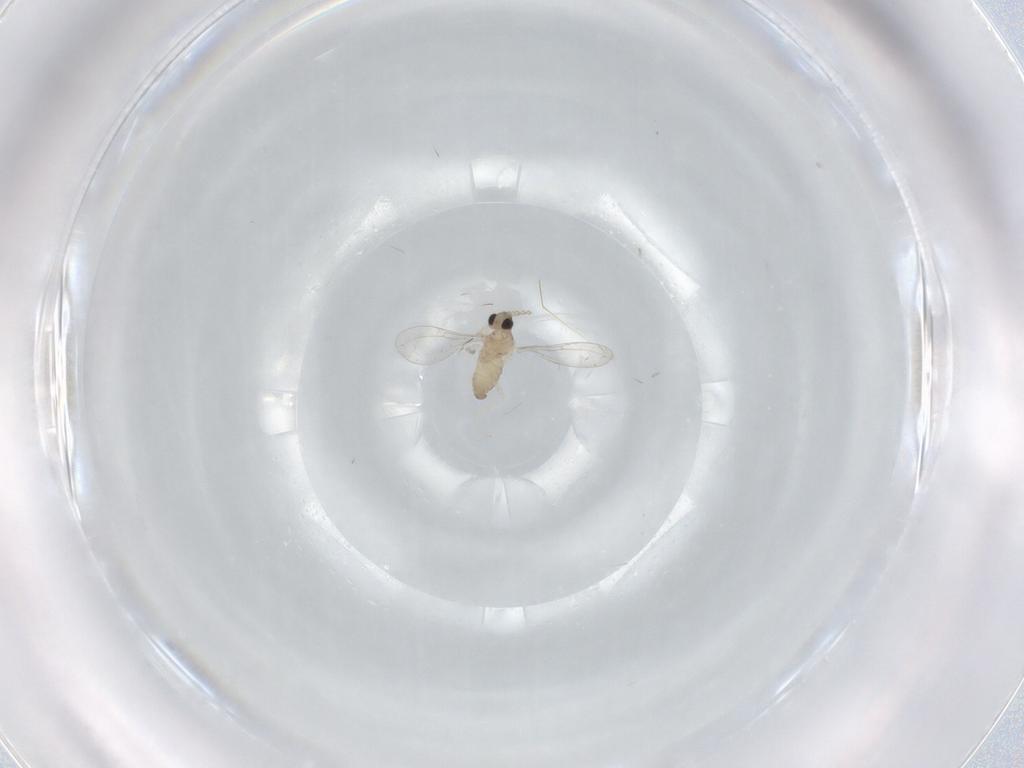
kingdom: Animalia
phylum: Arthropoda
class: Insecta
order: Diptera
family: Cecidomyiidae
